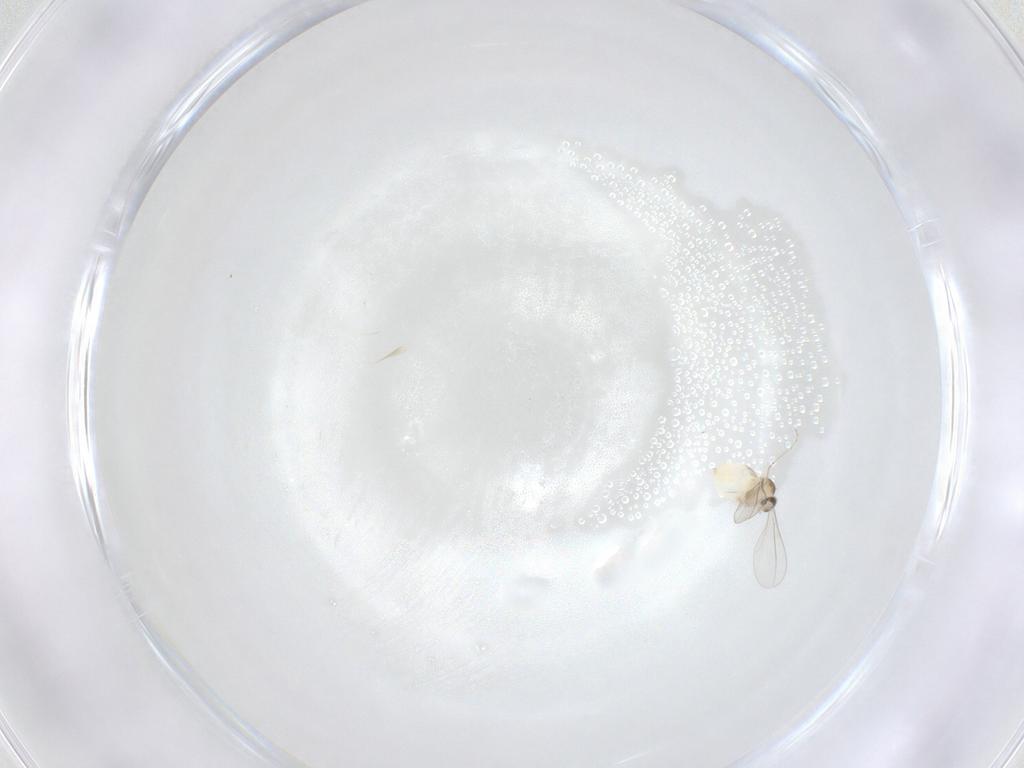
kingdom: Animalia
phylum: Arthropoda
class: Insecta
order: Diptera
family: Cecidomyiidae
